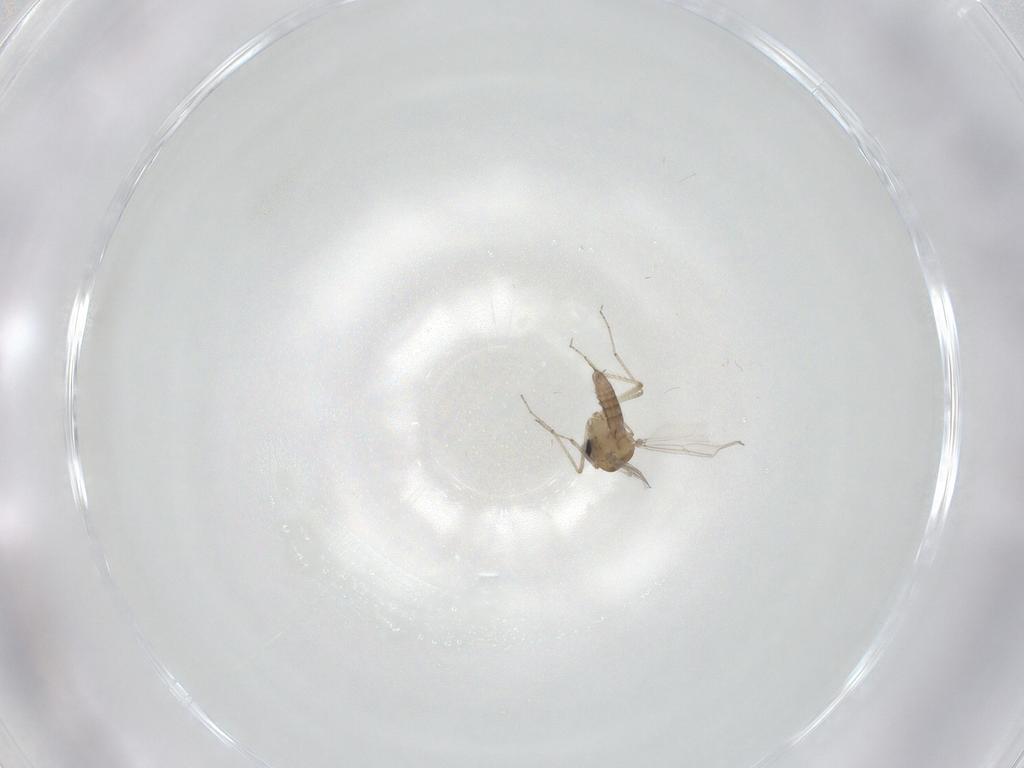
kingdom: Animalia
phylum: Arthropoda
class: Insecta
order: Diptera
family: Ceratopogonidae
